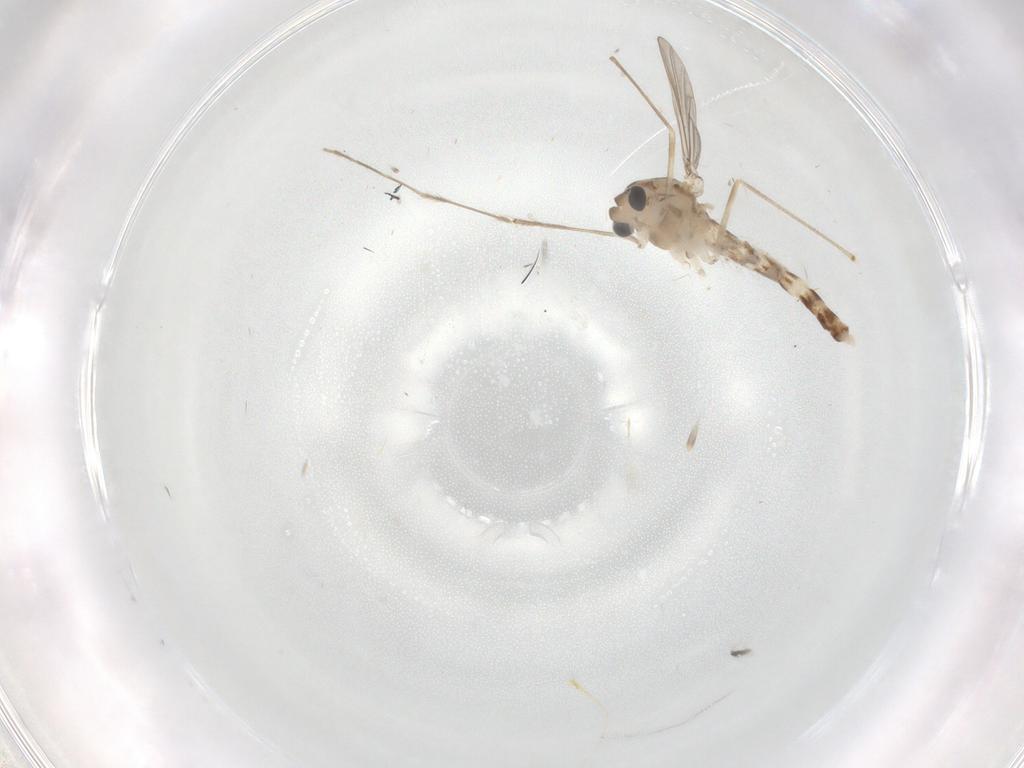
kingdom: Animalia
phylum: Arthropoda
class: Insecta
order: Diptera
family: Phoridae
